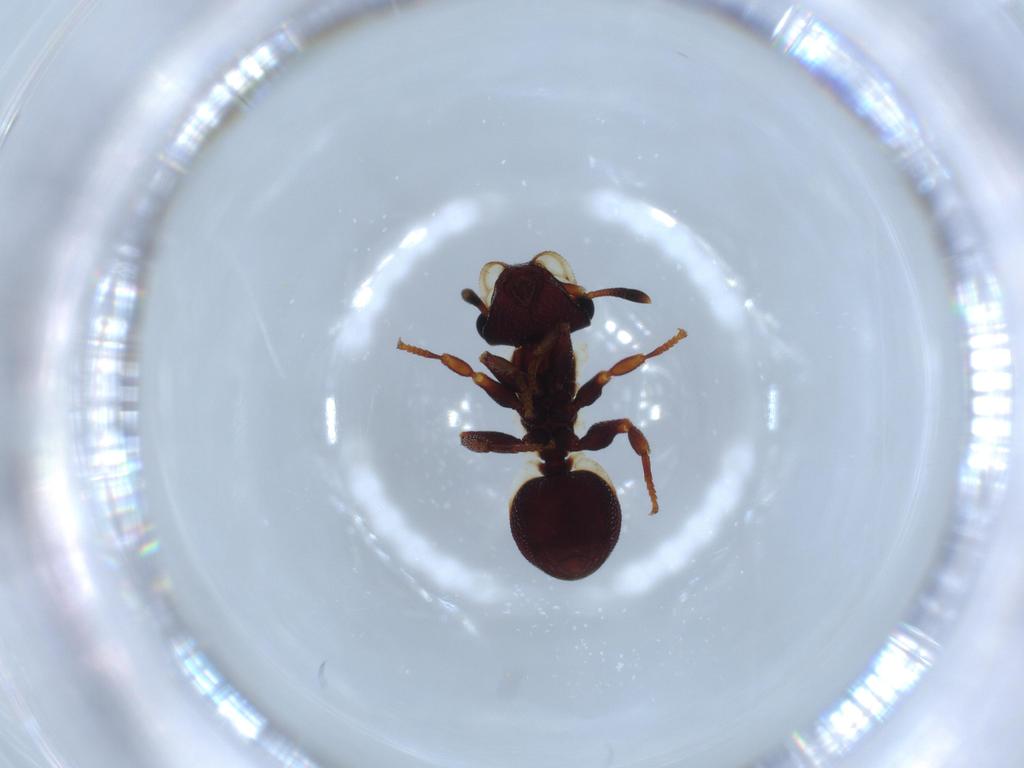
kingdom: Animalia
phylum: Arthropoda
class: Insecta
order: Hymenoptera
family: Formicidae
